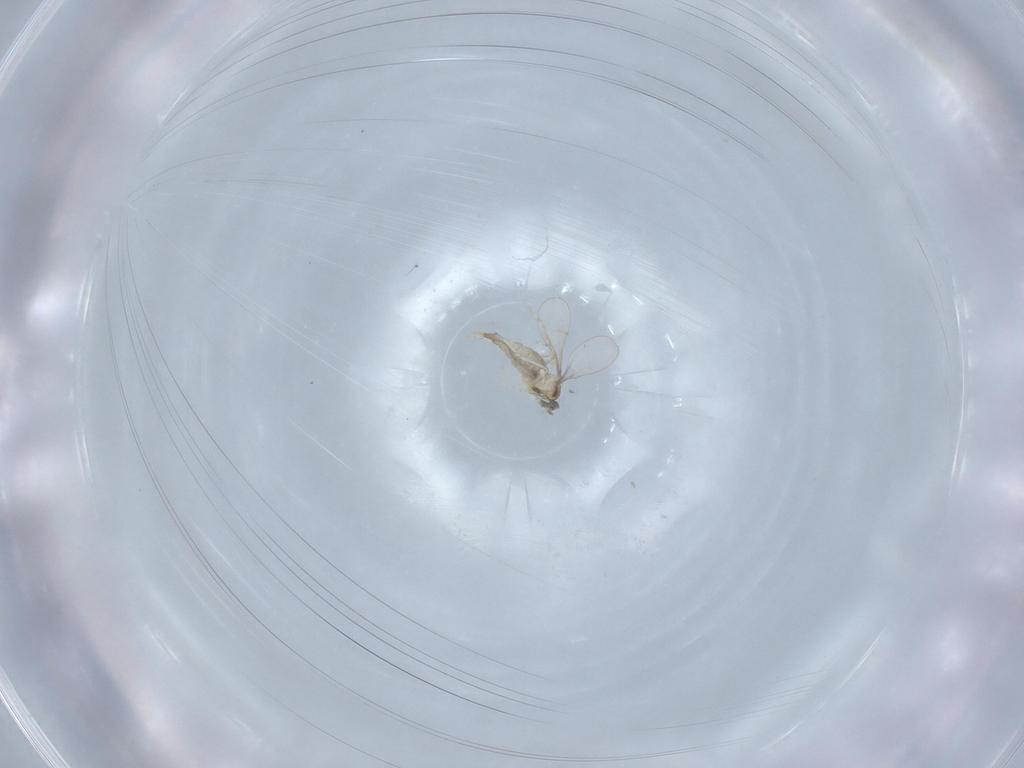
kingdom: Animalia
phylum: Arthropoda
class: Insecta
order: Diptera
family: Cecidomyiidae
